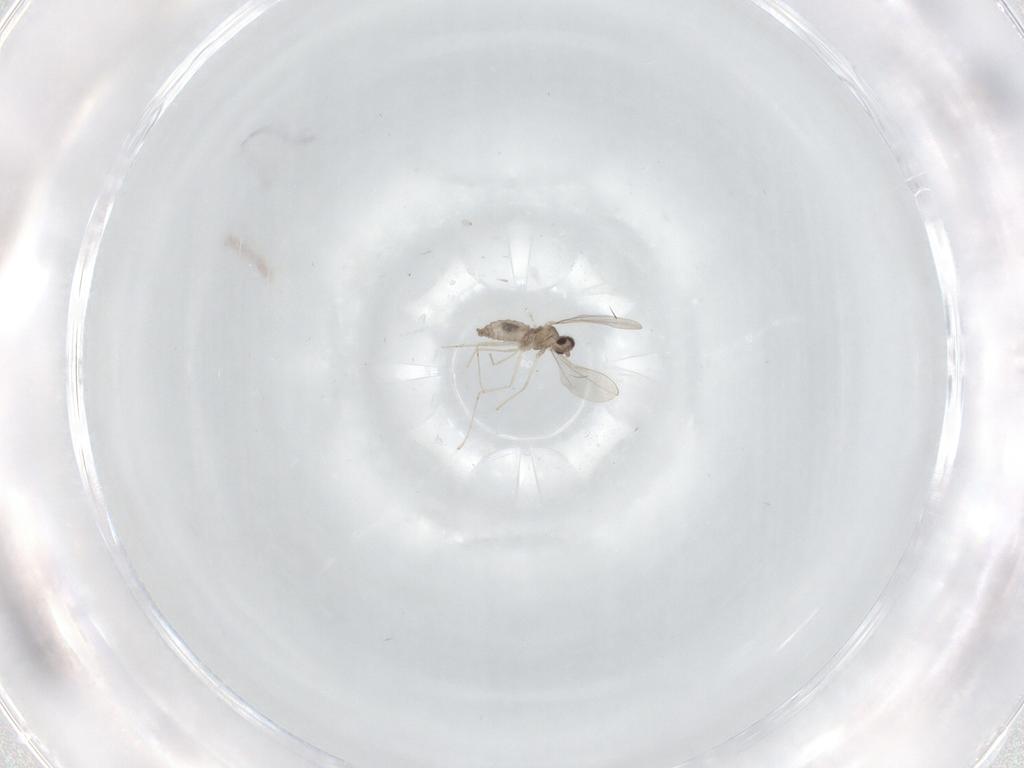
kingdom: Animalia
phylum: Arthropoda
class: Insecta
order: Diptera
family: Cecidomyiidae
